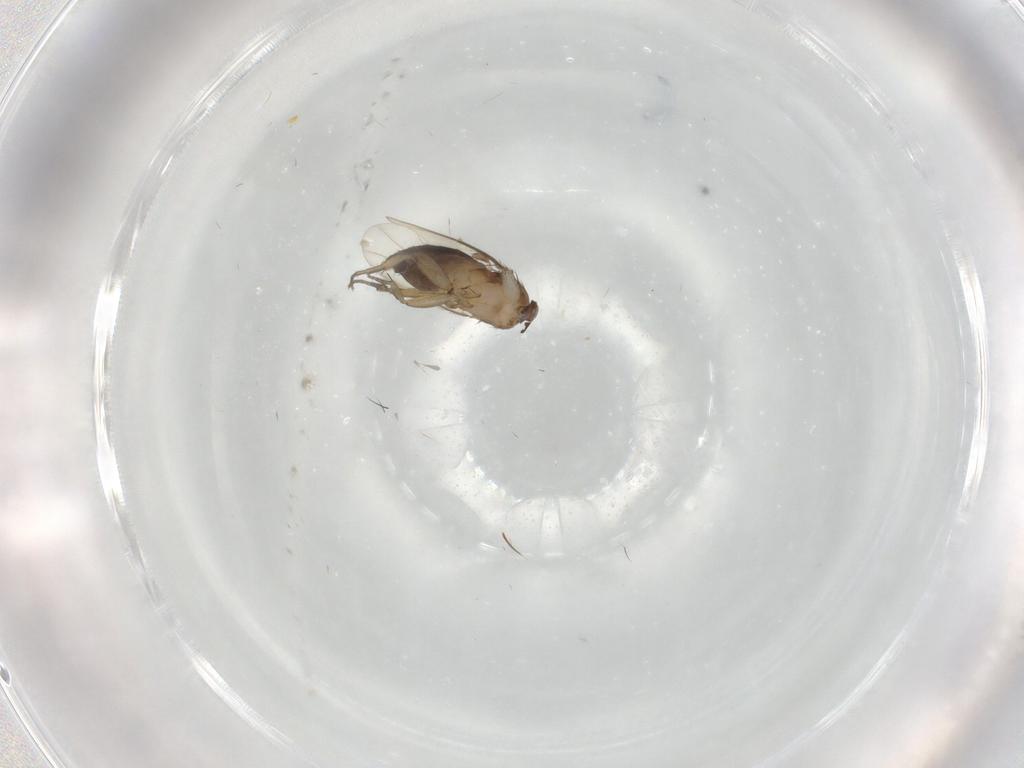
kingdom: Animalia
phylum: Arthropoda
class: Insecta
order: Diptera
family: Phoridae
